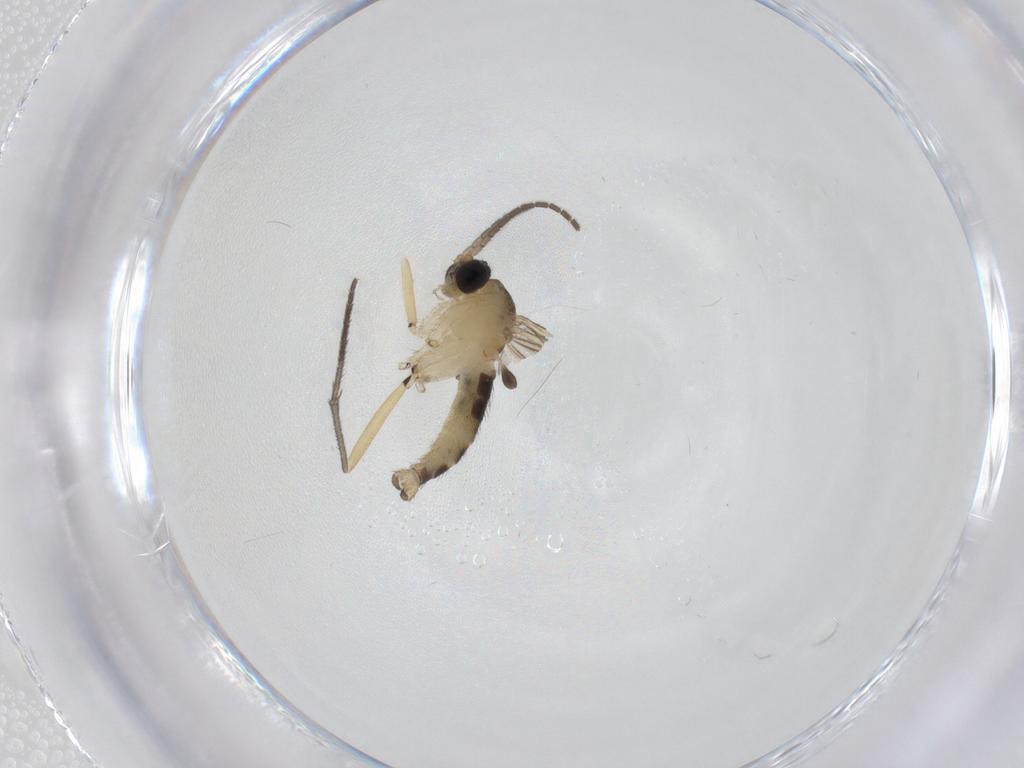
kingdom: Animalia
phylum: Arthropoda
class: Insecta
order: Diptera
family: Sciaridae
